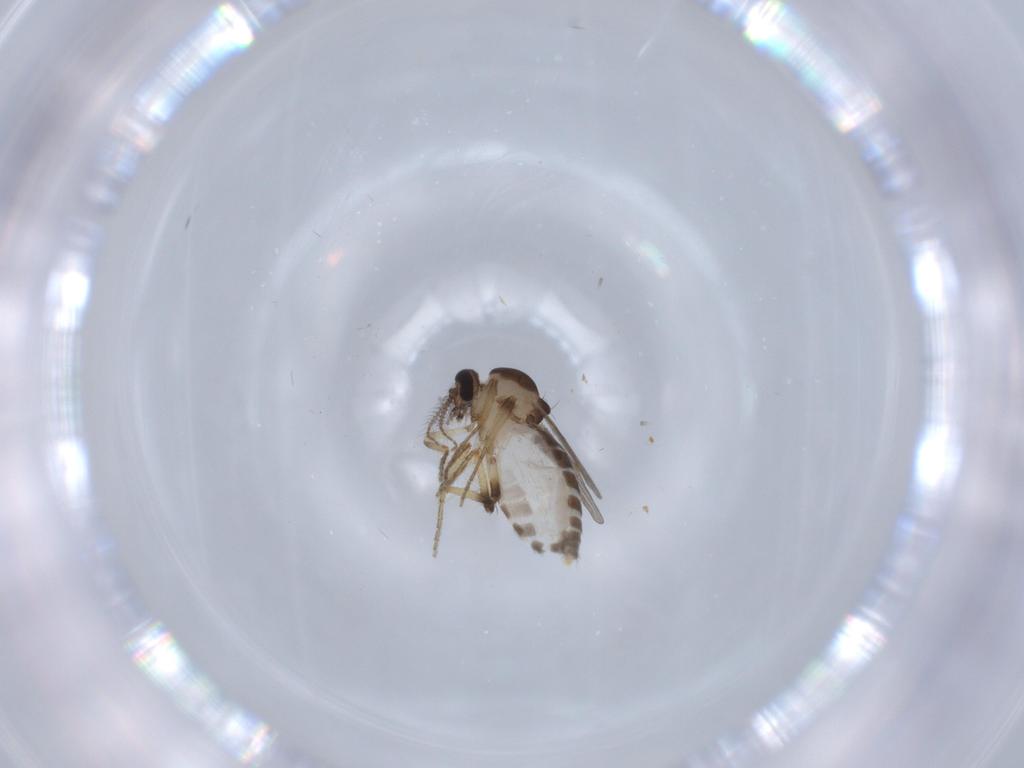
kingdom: Animalia
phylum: Arthropoda
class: Insecta
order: Diptera
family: Ceratopogonidae
